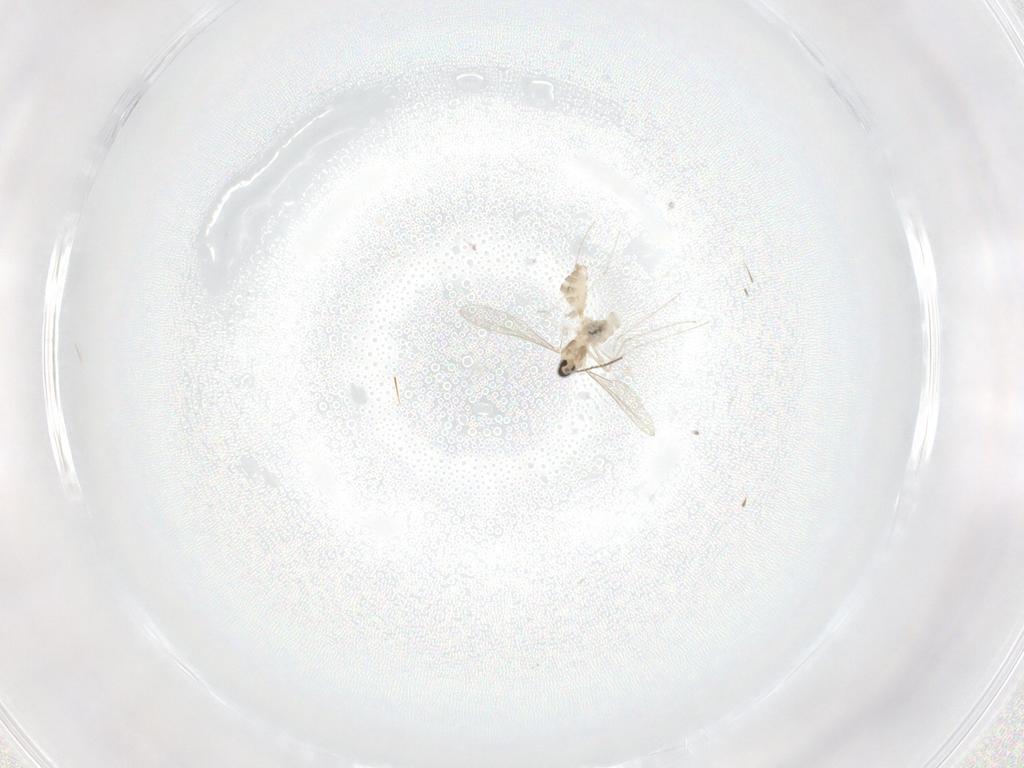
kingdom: Animalia
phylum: Arthropoda
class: Insecta
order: Diptera
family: Cecidomyiidae
